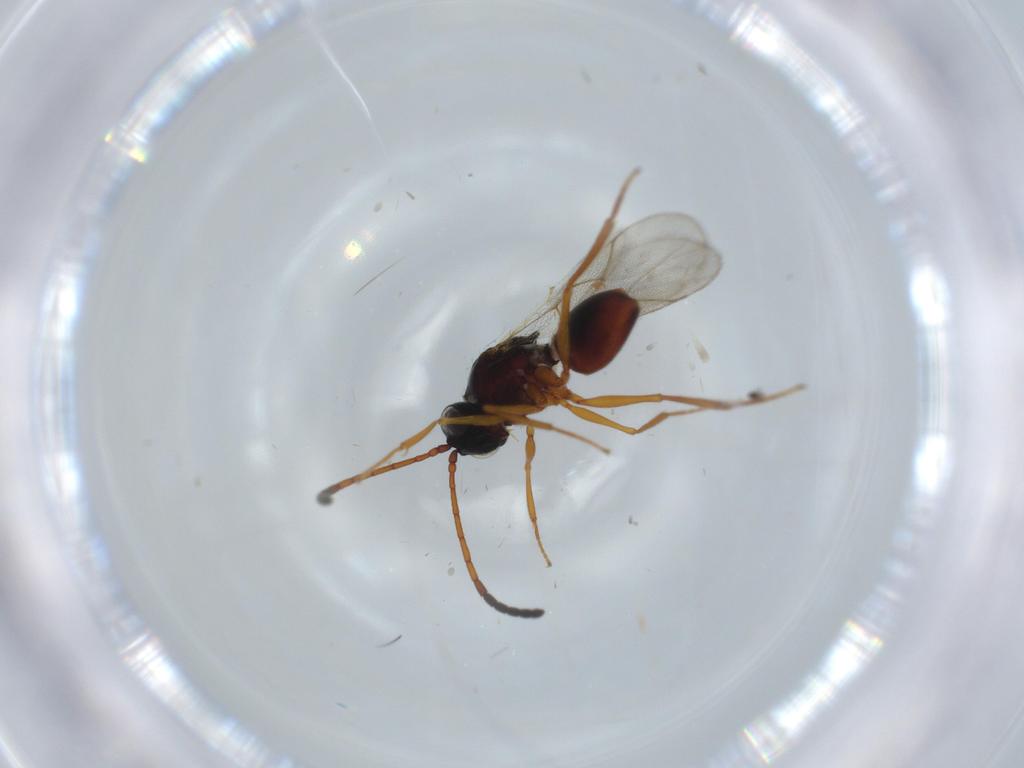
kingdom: Animalia
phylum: Arthropoda
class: Insecta
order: Hymenoptera
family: Figitidae
